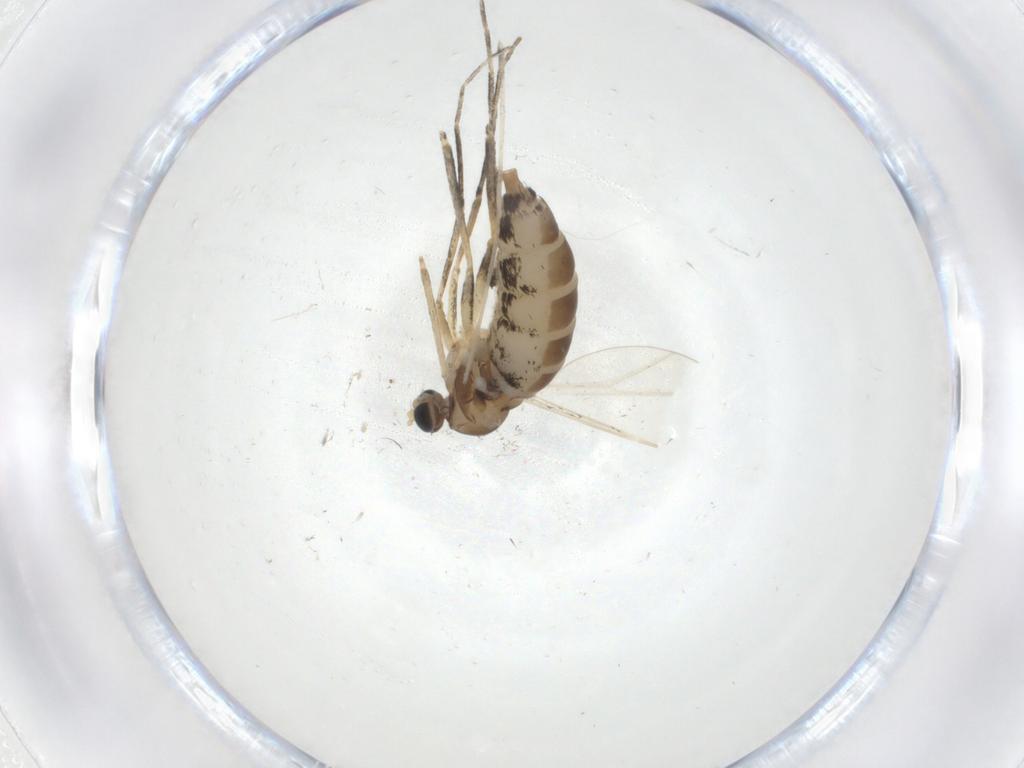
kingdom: Animalia
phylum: Arthropoda
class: Insecta
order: Diptera
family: Cecidomyiidae
